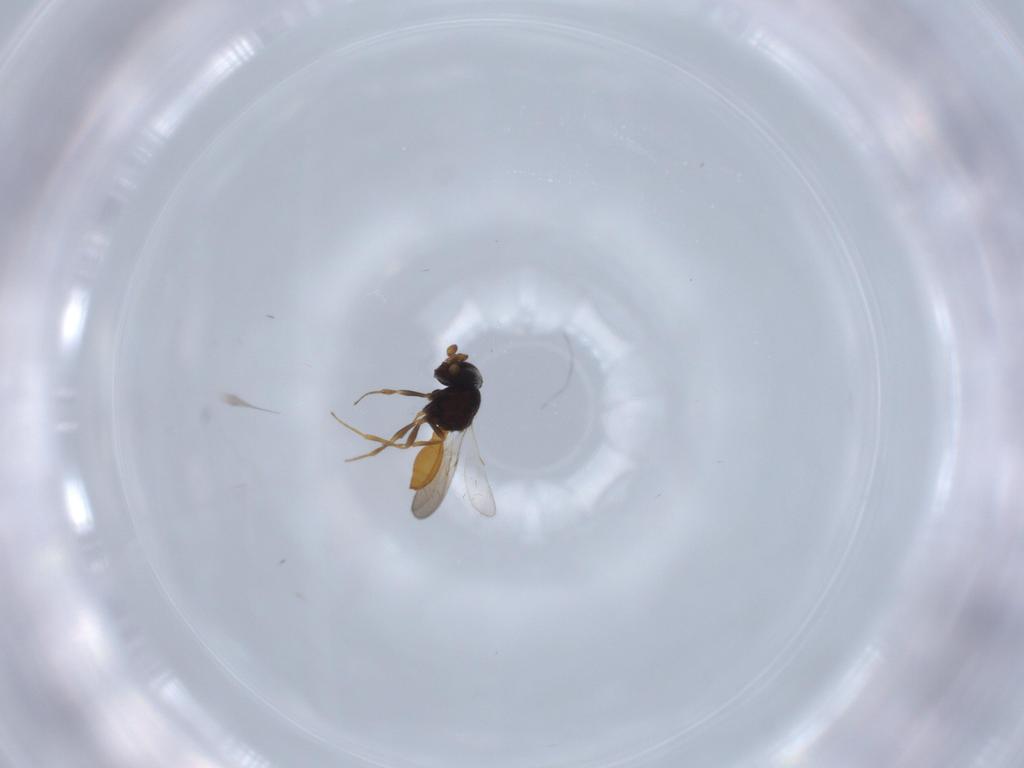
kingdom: Animalia
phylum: Arthropoda
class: Insecta
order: Hymenoptera
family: Scelionidae
